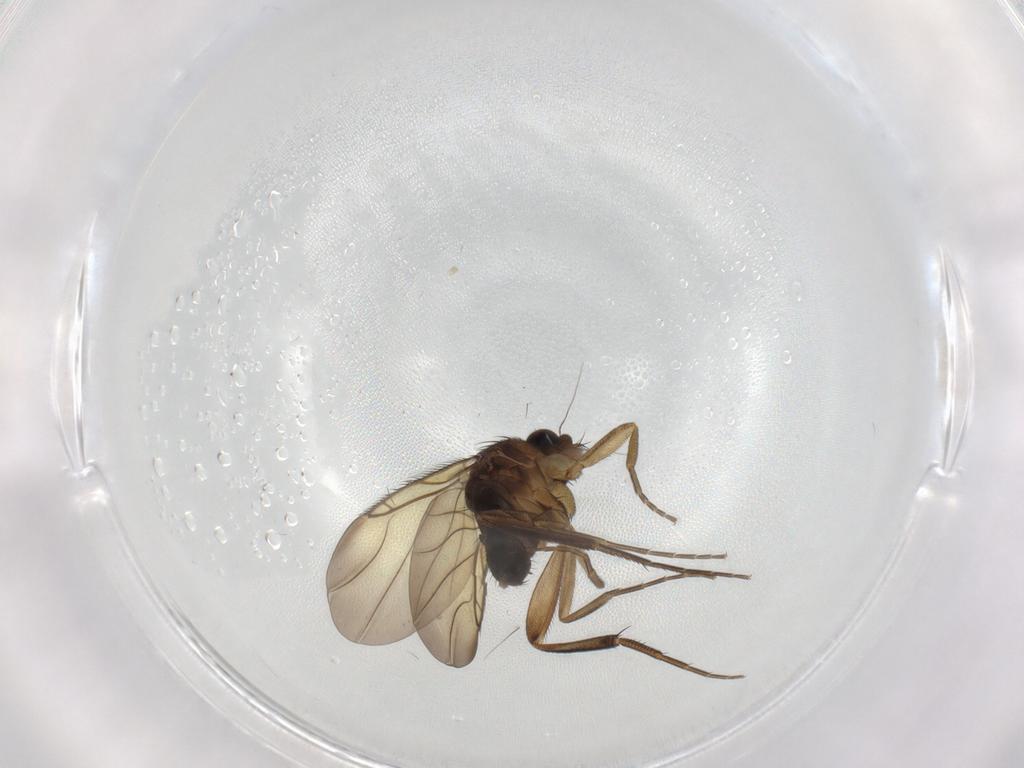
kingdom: Animalia
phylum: Arthropoda
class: Insecta
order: Diptera
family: Phoridae
